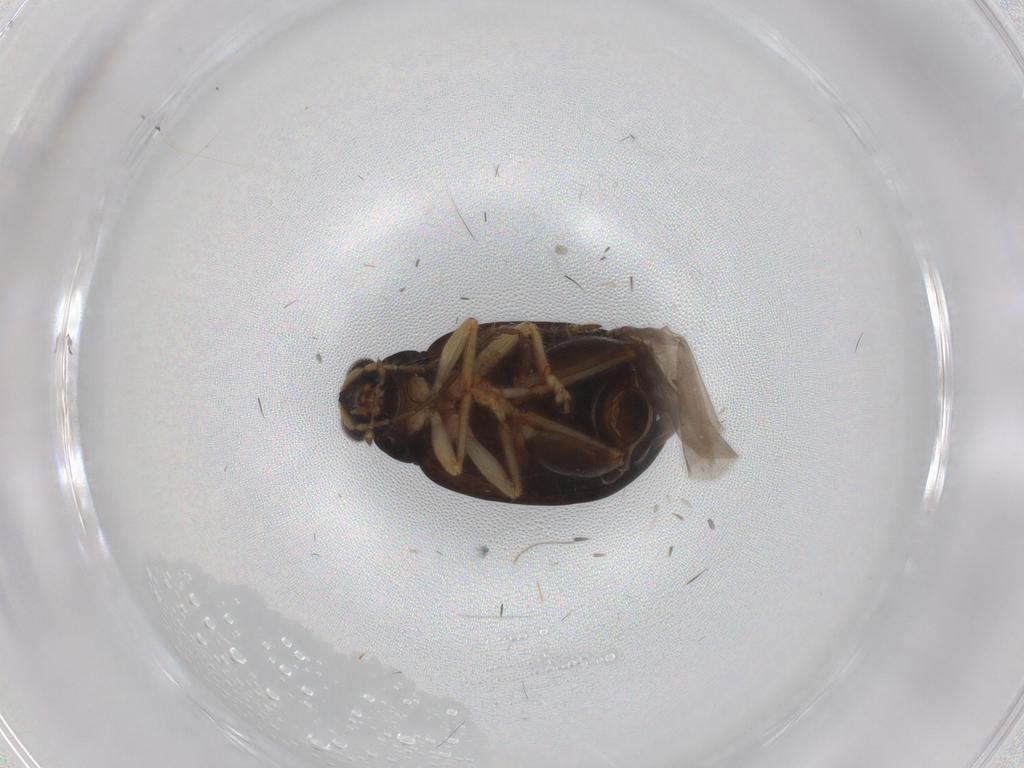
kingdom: Animalia
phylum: Arthropoda
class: Insecta
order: Coleoptera
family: Chrysomelidae
